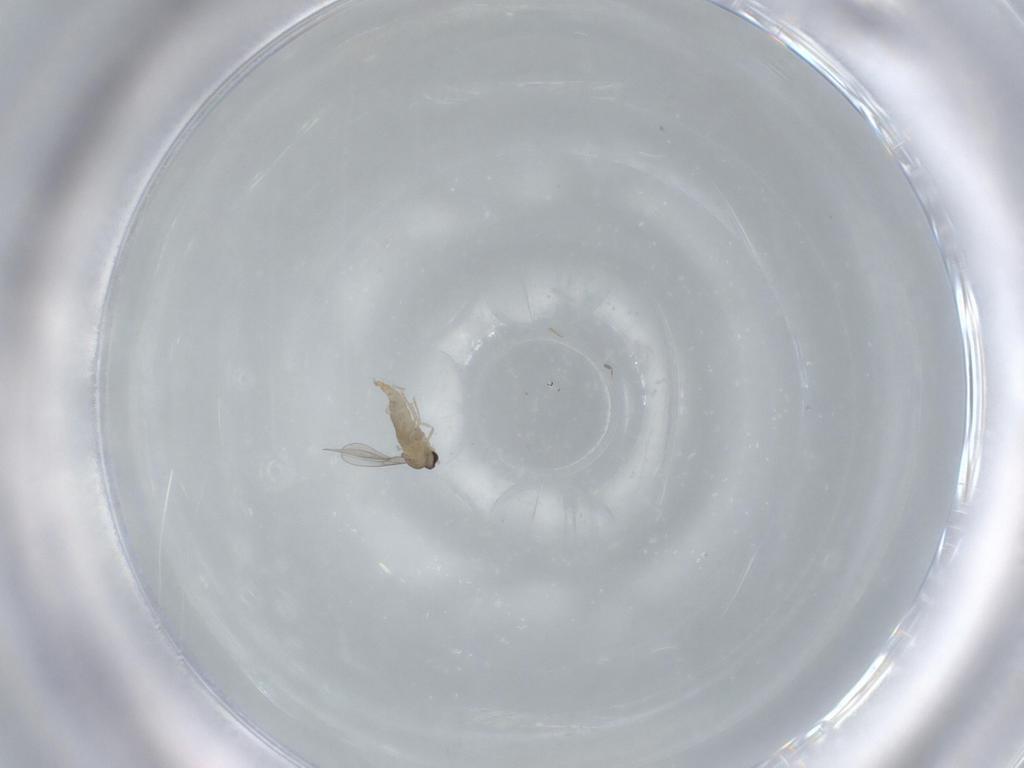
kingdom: Animalia
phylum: Arthropoda
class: Insecta
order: Diptera
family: Cecidomyiidae
